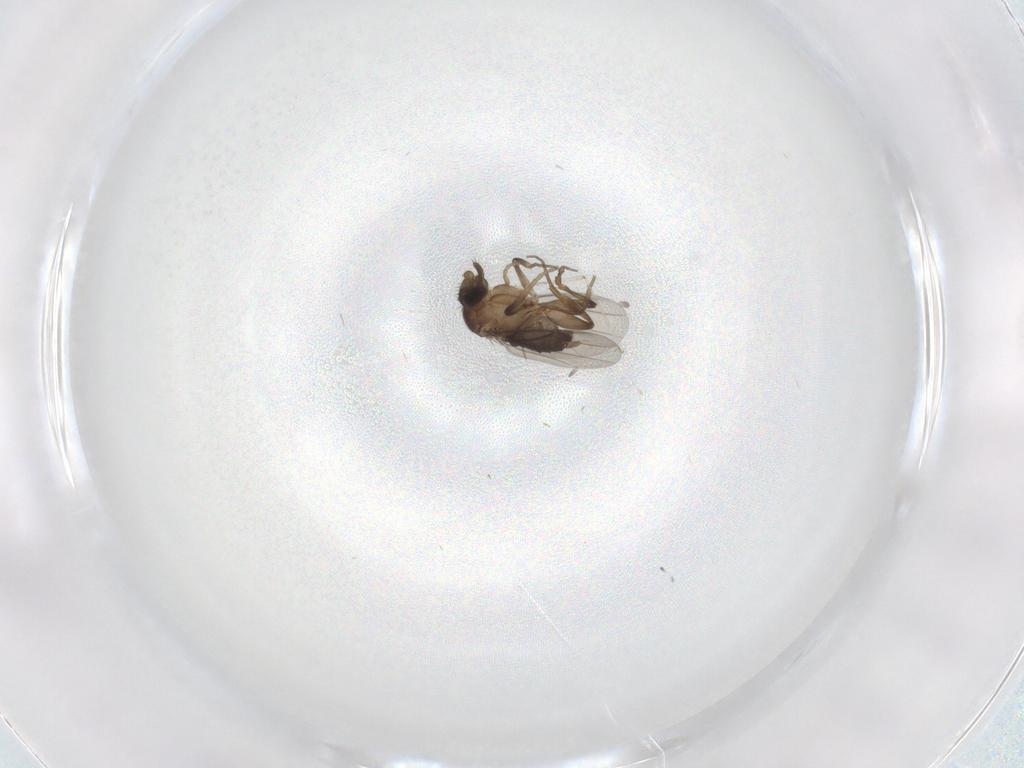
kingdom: Animalia
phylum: Arthropoda
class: Insecta
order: Diptera
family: Phoridae
